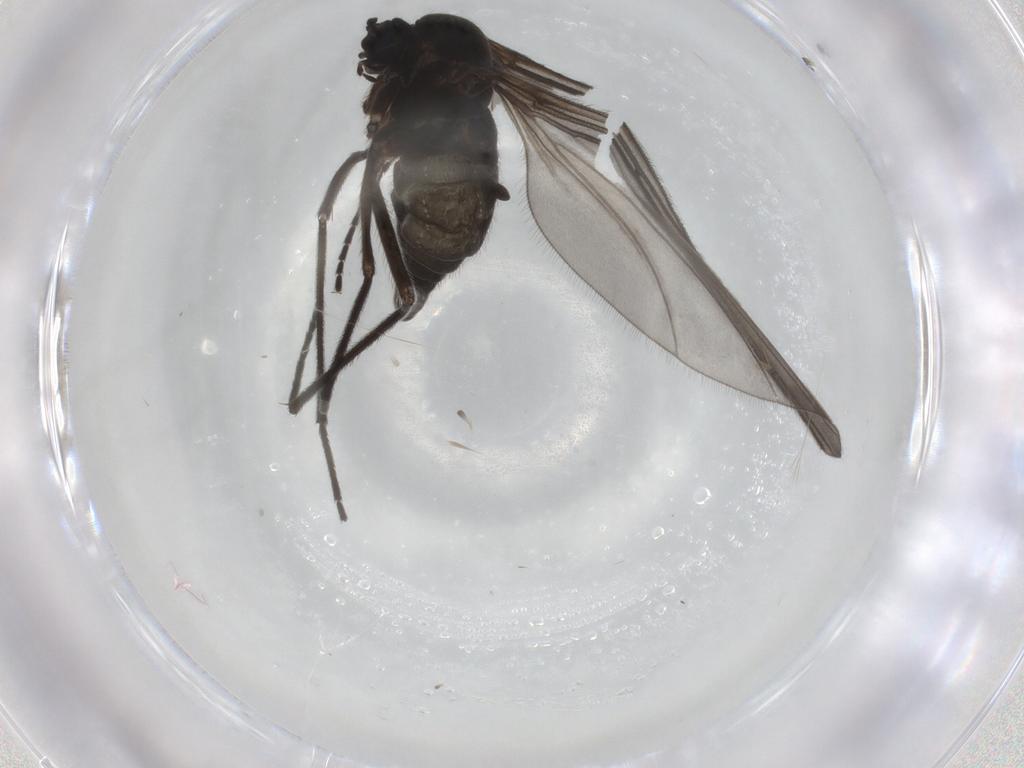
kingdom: Animalia
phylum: Arthropoda
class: Insecta
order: Diptera
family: Sciaridae
